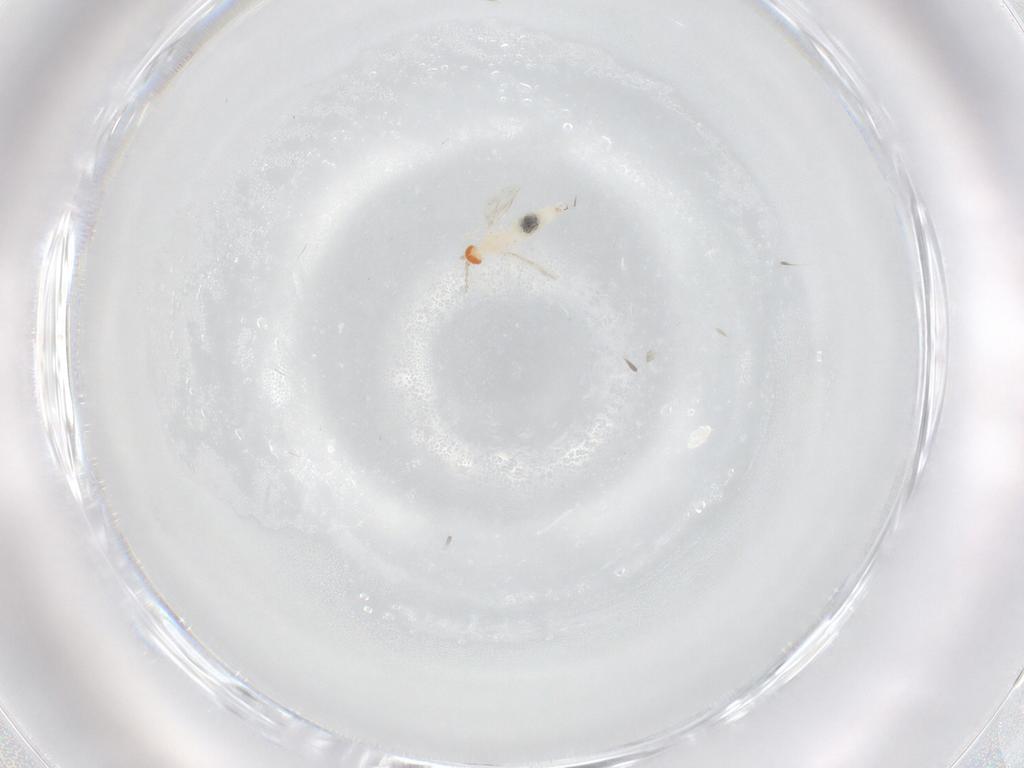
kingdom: Animalia
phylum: Arthropoda
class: Insecta
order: Diptera
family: Cecidomyiidae
